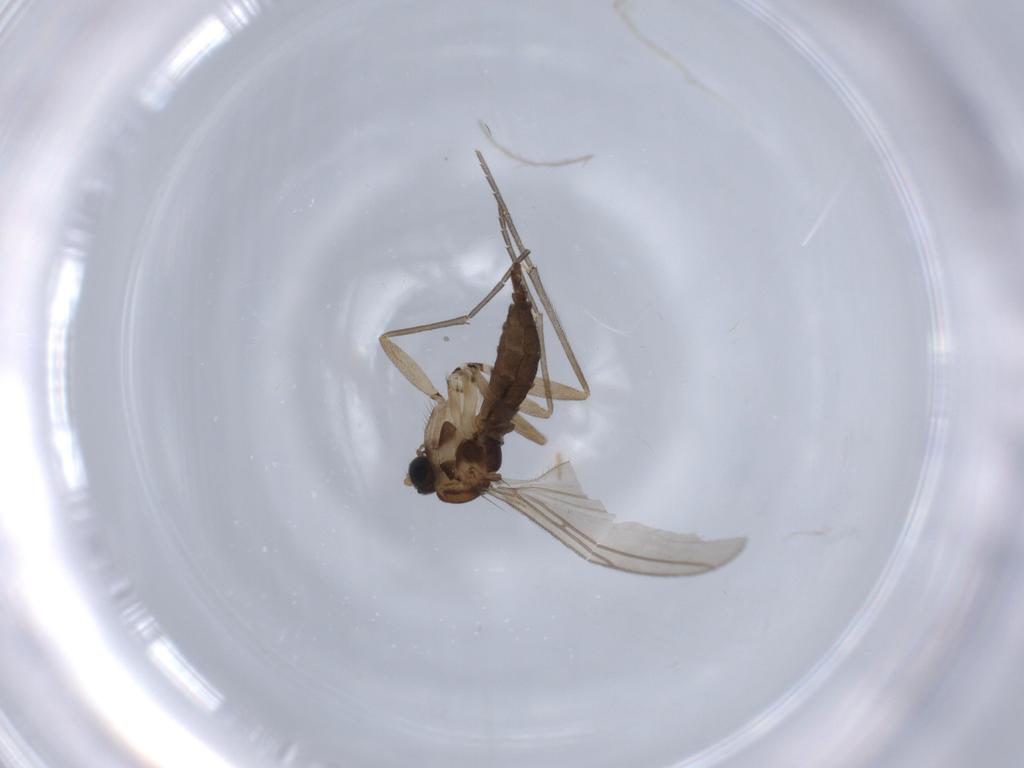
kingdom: Animalia
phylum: Arthropoda
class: Insecta
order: Diptera
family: Sciaridae
